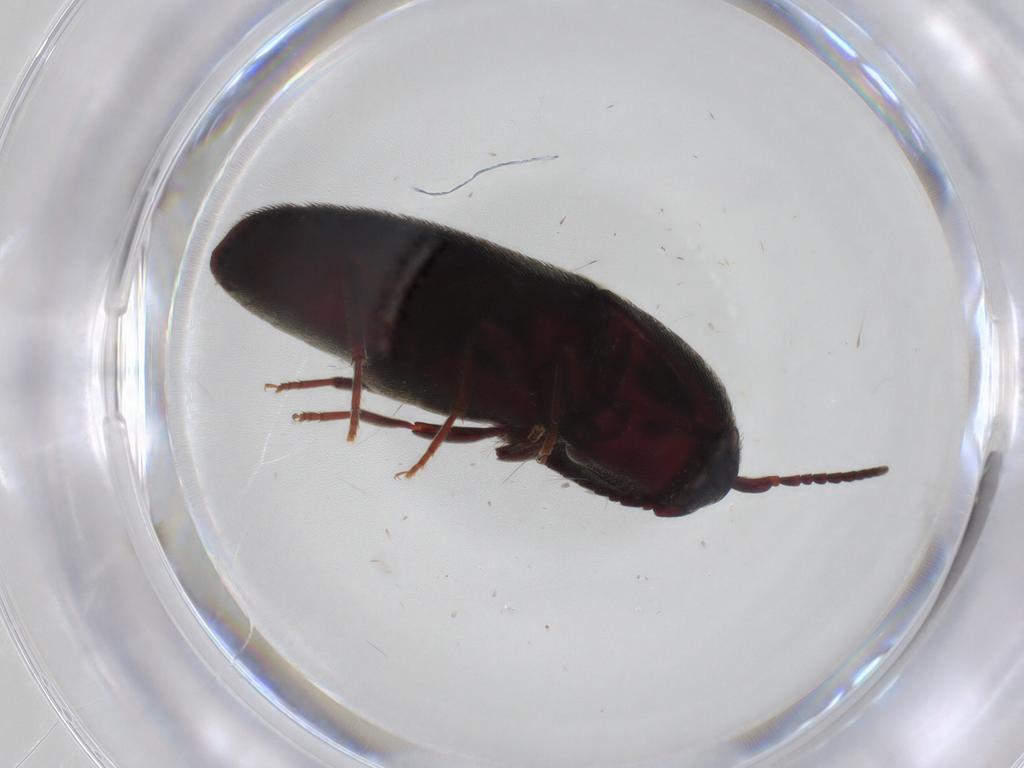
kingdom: Animalia
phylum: Arthropoda
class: Insecta
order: Coleoptera
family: Eucnemidae
